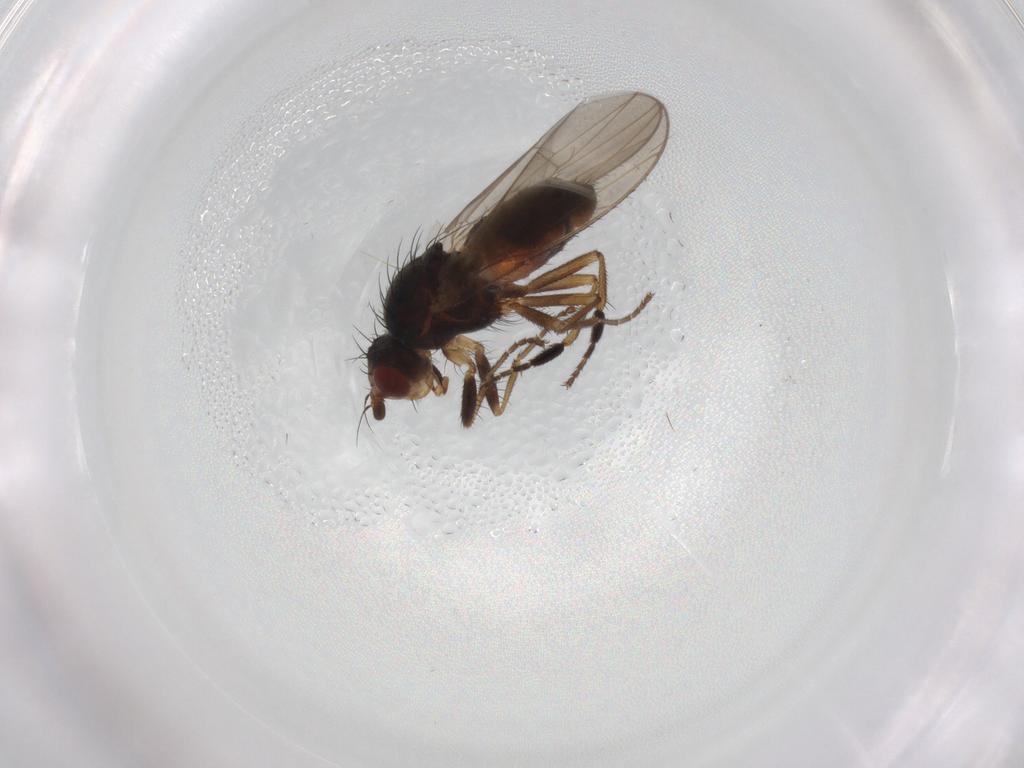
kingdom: Animalia
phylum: Arthropoda
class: Insecta
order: Diptera
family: Heleomyzidae
